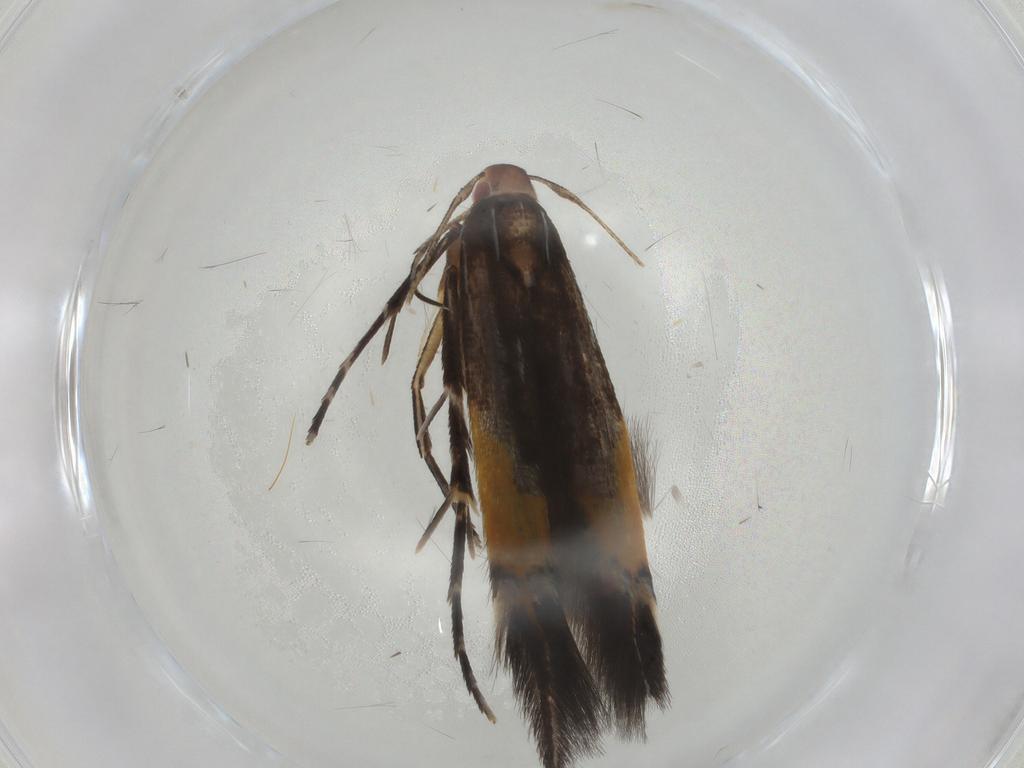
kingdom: Animalia
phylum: Arthropoda
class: Insecta
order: Lepidoptera
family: Cosmopterigidae
